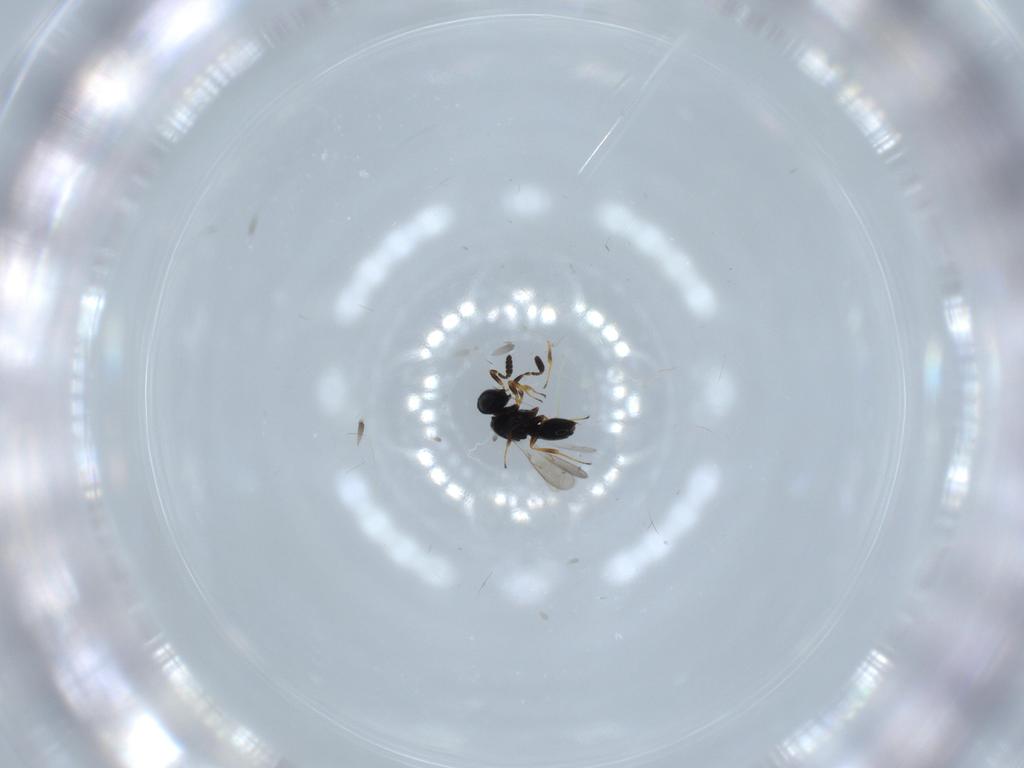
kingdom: Animalia
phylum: Arthropoda
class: Insecta
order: Hymenoptera
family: Scelionidae
